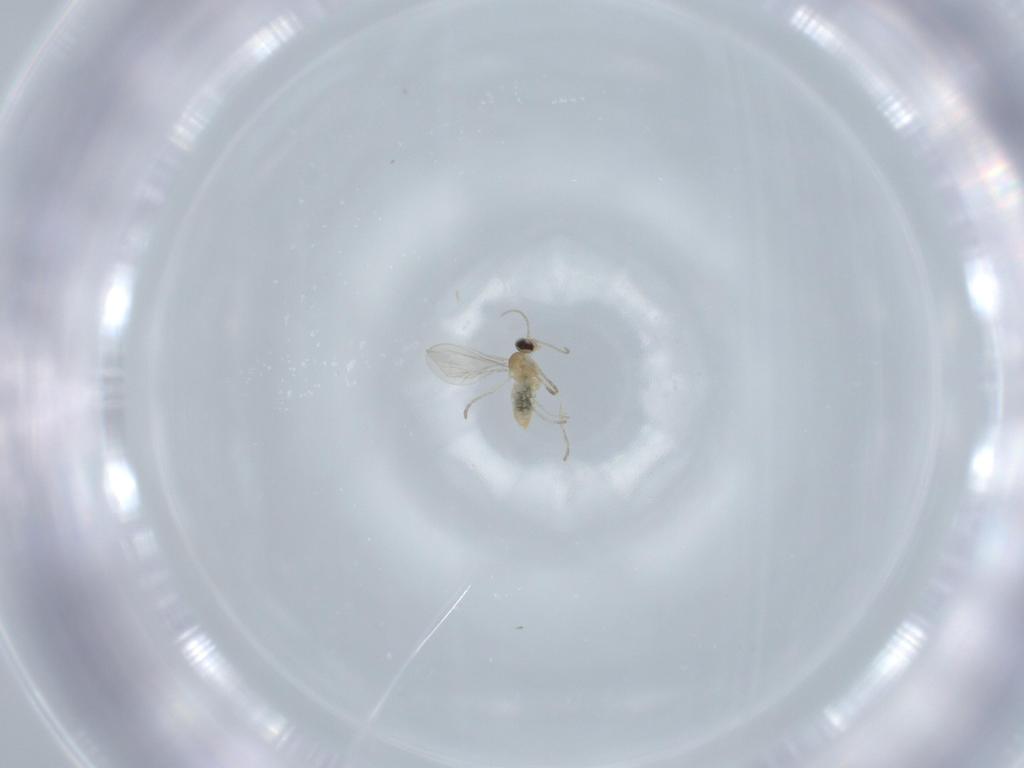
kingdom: Animalia
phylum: Arthropoda
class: Insecta
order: Diptera
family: Cecidomyiidae
